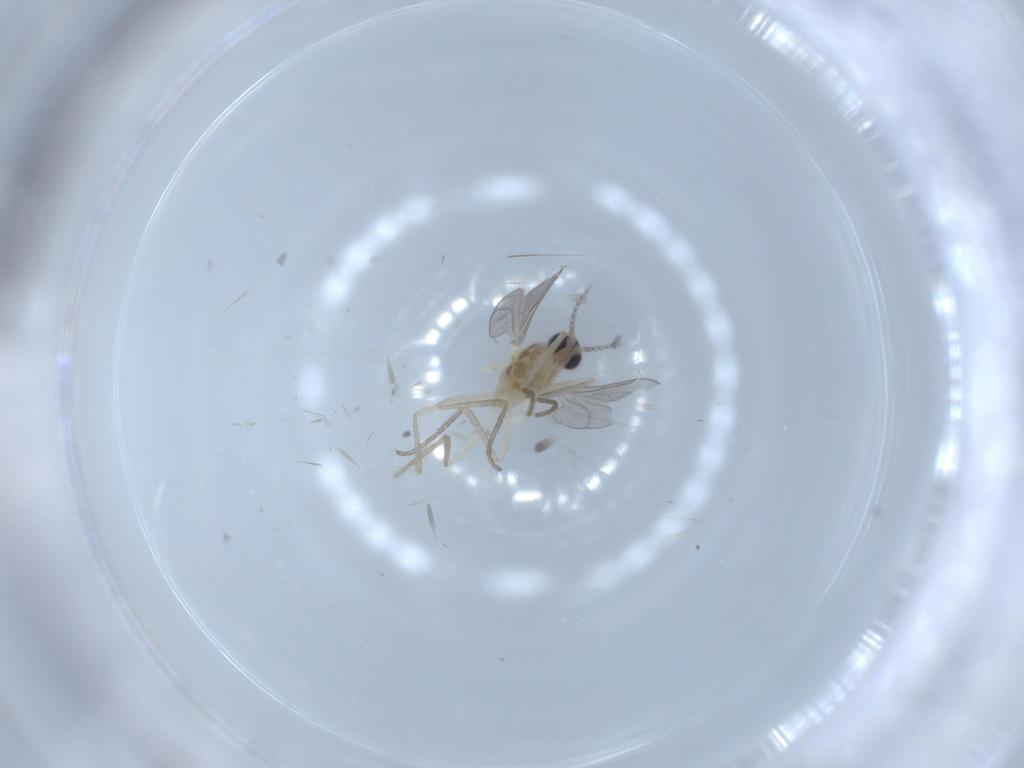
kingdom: Animalia
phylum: Arthropoda
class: Insecta
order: Diptera
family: Cecidomyiidae
